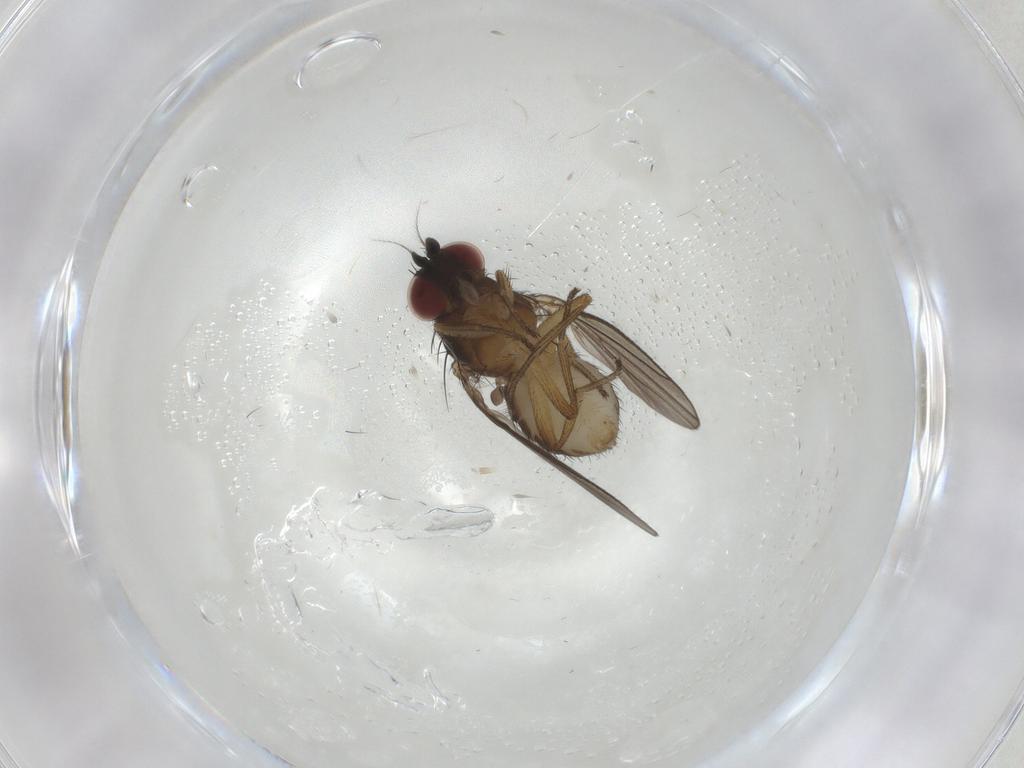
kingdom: Animalia
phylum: Arthropoda
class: Insecta
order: Diptera
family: Lauxaniidae
